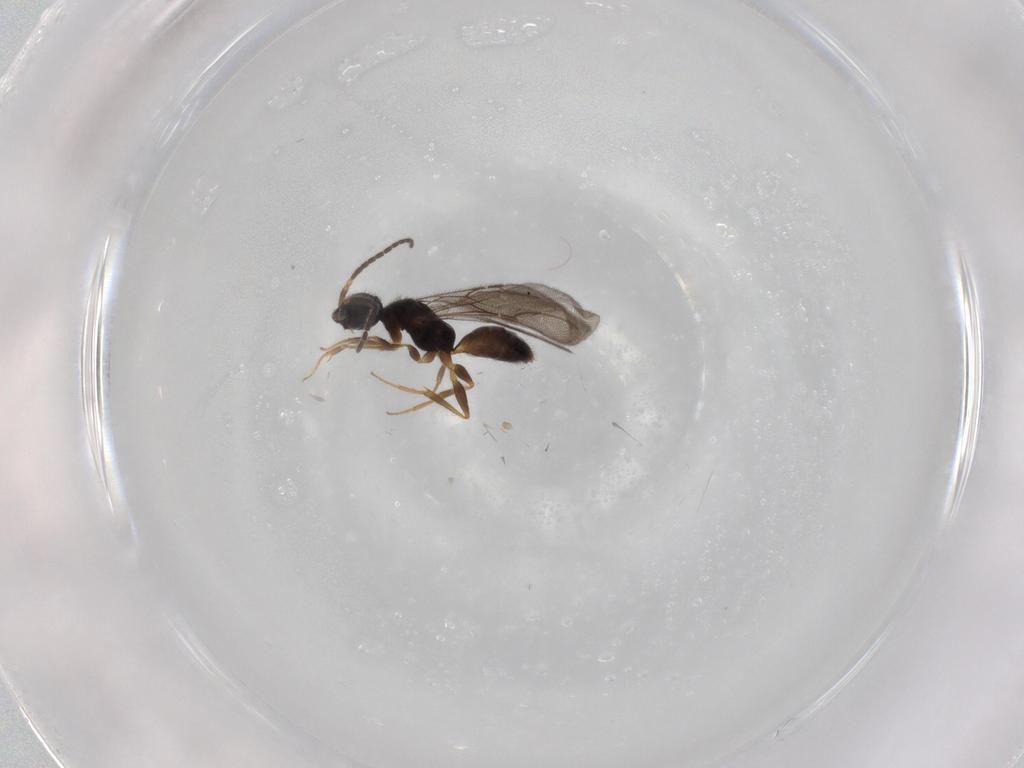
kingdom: Animalia
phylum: Arthropoda
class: Insecta
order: Hymenoptera
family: Bethylidae
